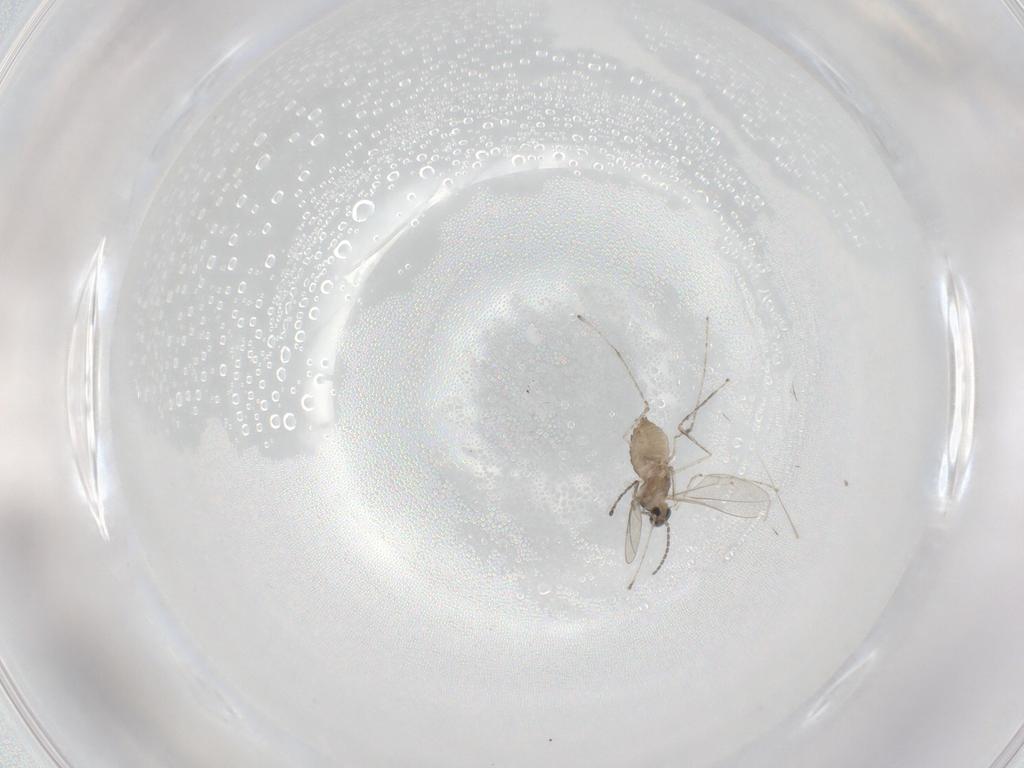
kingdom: Animalia
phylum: Arthropoda
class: Insecta
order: Diptera
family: Cecidomyiidae
